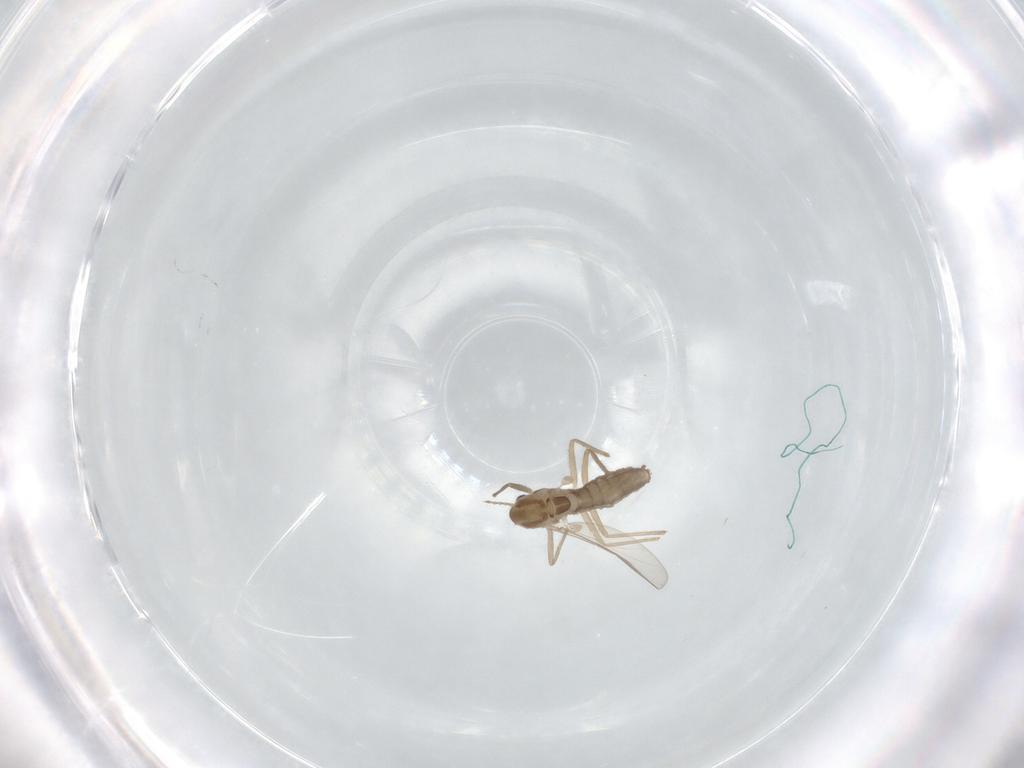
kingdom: Animalia
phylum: Arthropoda
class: Insecta
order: Diptera
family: Chironomidae
